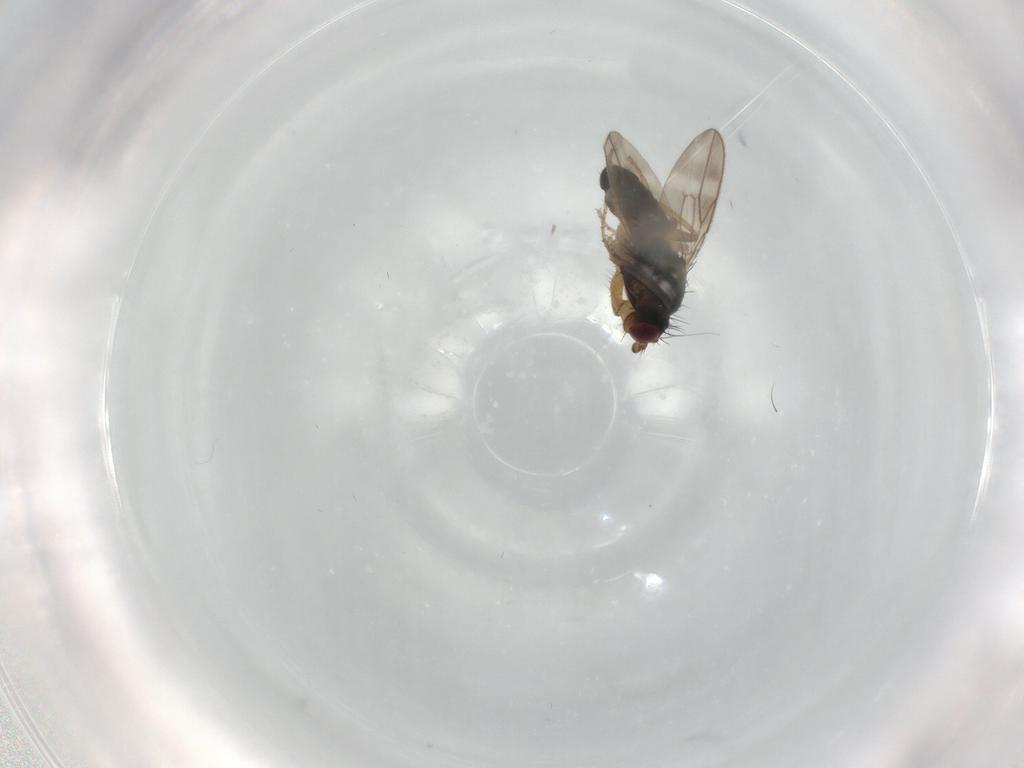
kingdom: Animalia
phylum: Arthropoda
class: Insecta
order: Diptera
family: Sphaeroceridae
